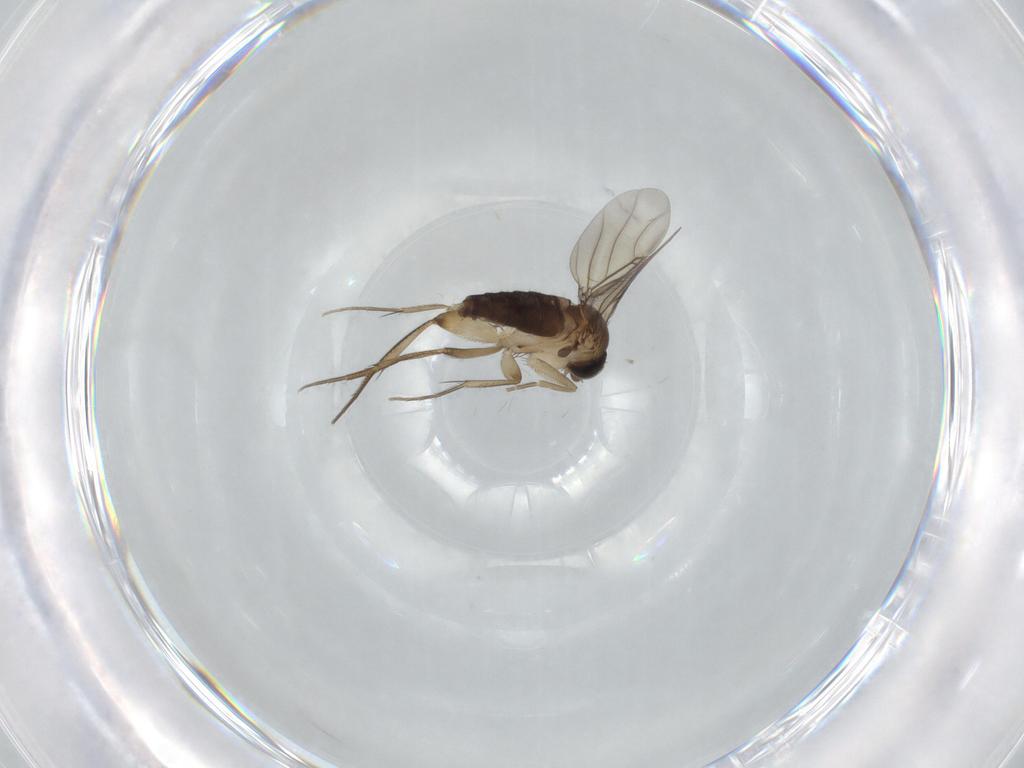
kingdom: Animalia
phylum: Arthropoda
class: Insecta
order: Diptera
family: Phoridae
